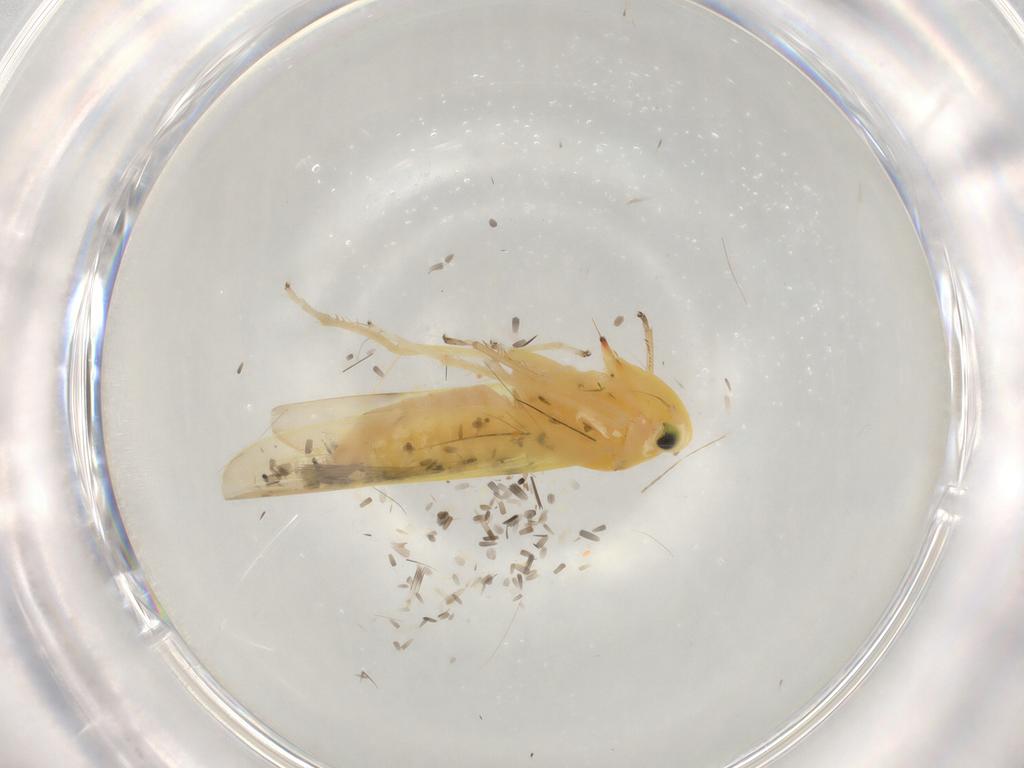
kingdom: Animalia
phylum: Arthropoda
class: Insecta
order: Hemiptera
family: Cicadellidae
